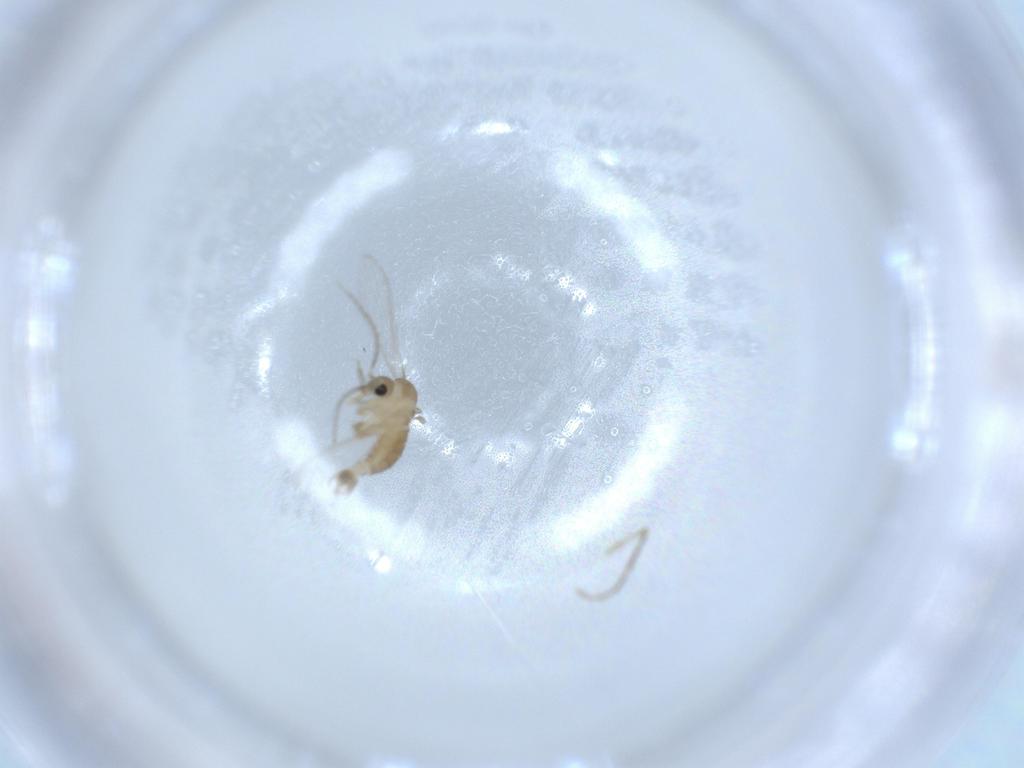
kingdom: Animalia
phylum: Arthropoda
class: Insecta
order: Diptera
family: Psychodidae
